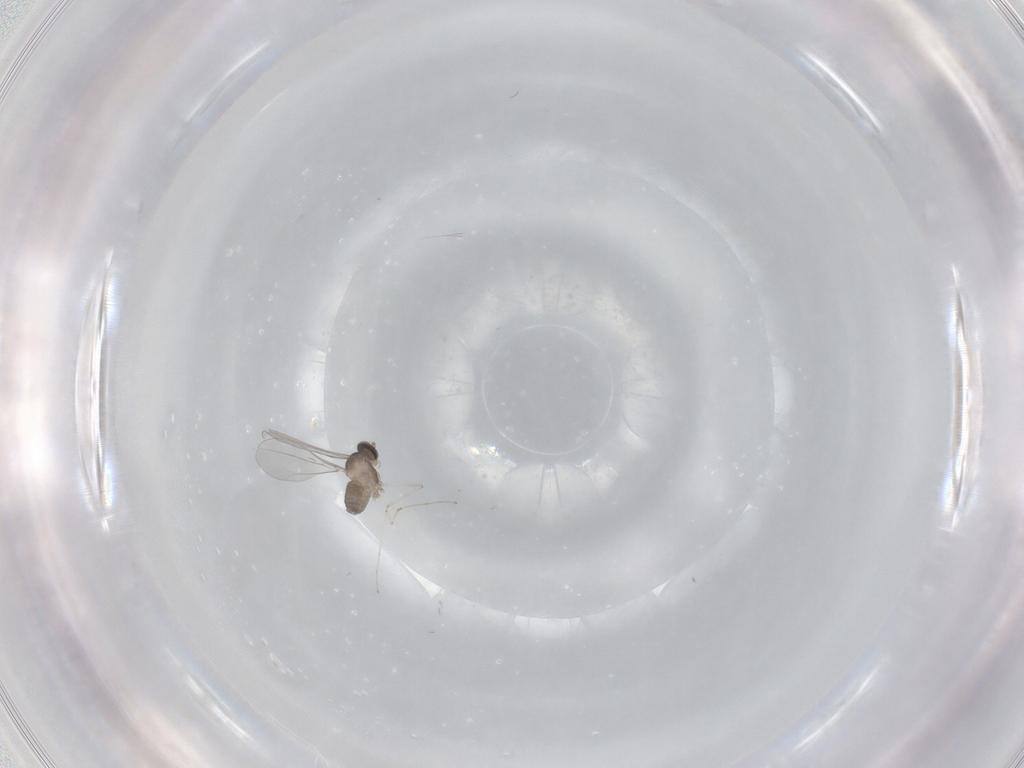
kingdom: Animalia
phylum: Arthropoda
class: Insecta
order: Diptera
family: Cecidomyiidae
